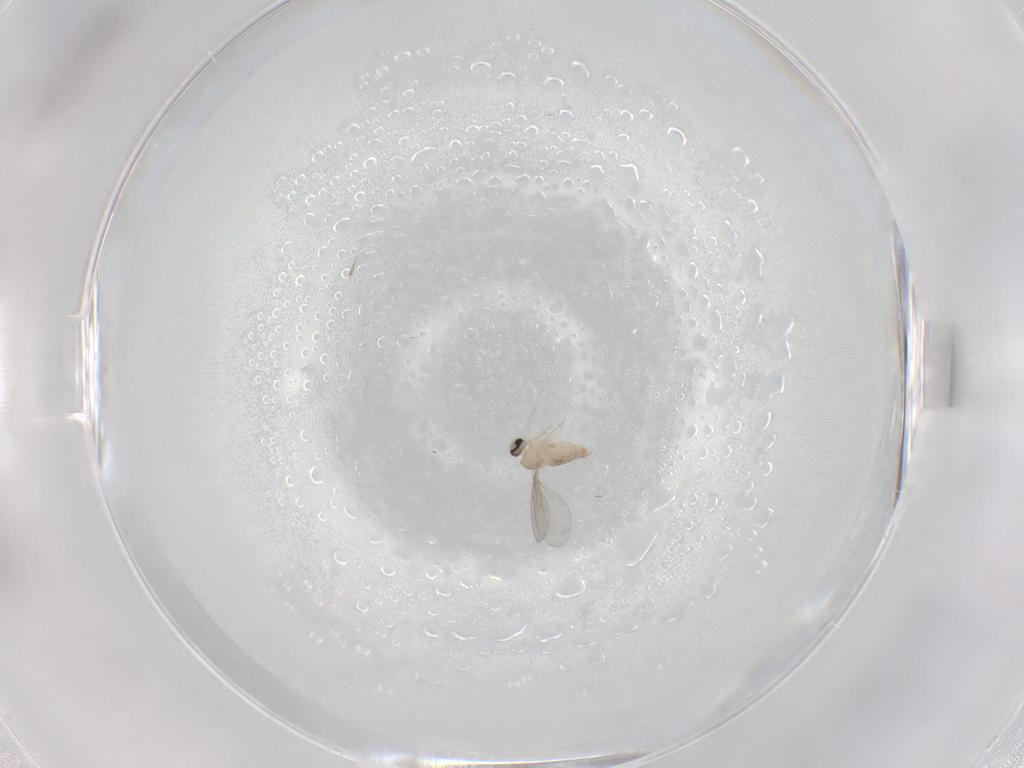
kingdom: Animalia
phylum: Arthropoda
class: Insecta
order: Diptera
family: Cecidomyiidae
